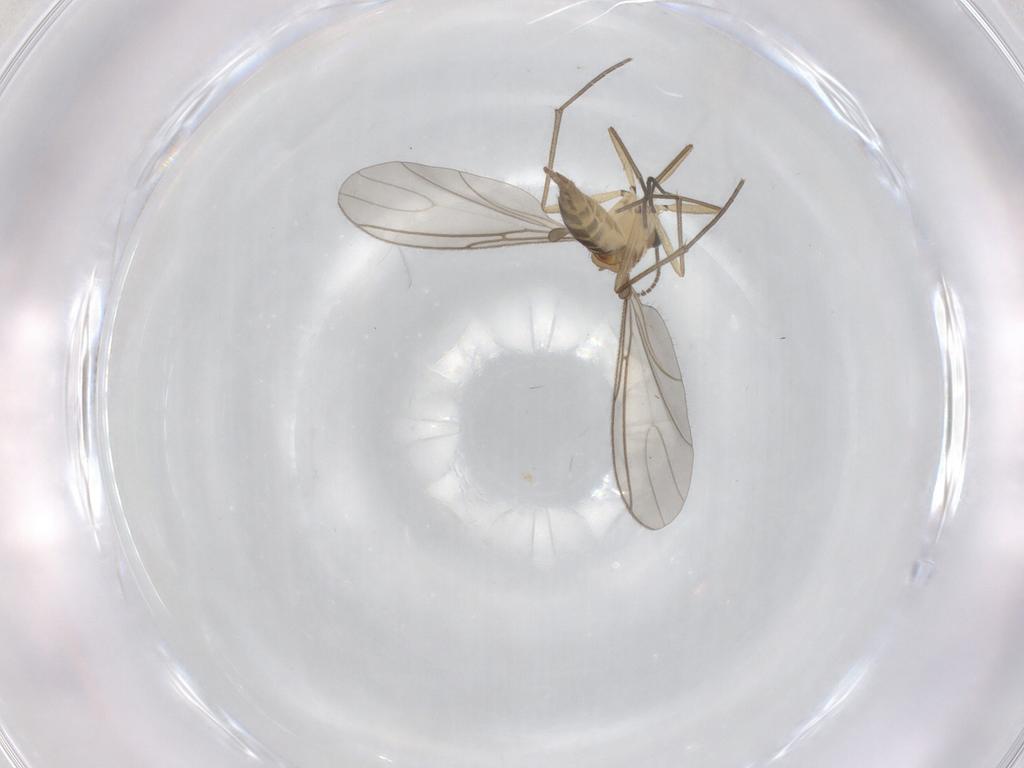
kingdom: Animalia
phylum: Arthropoda
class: Insecta
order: Diptera
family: Sciaridae
